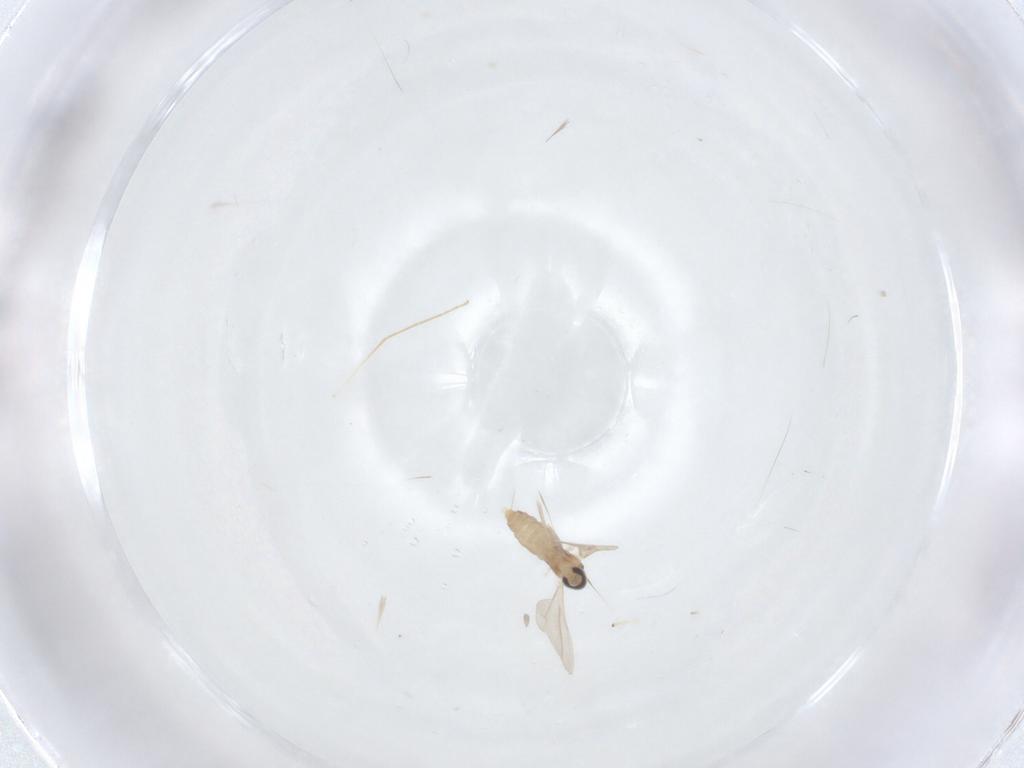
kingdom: Animalia
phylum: Arthropoda
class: Insecta
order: Diptera
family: Chironomidae
